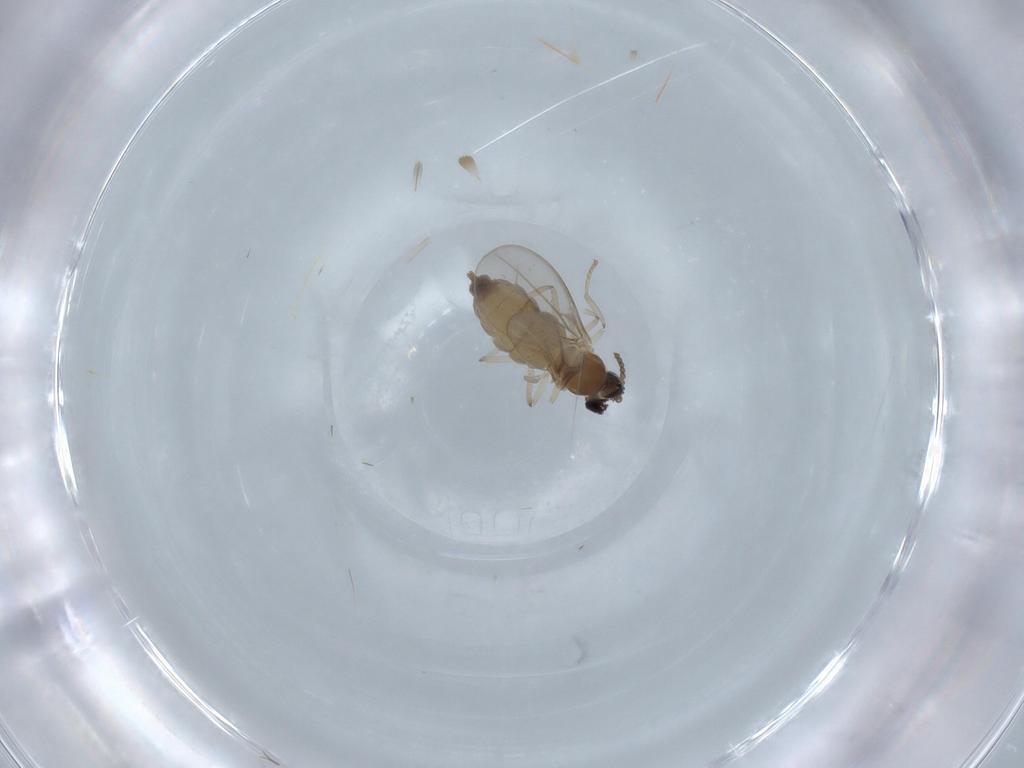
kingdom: Animalia
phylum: Arthropoda
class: Insecta
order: Diptera
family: Cecidomyiidae
